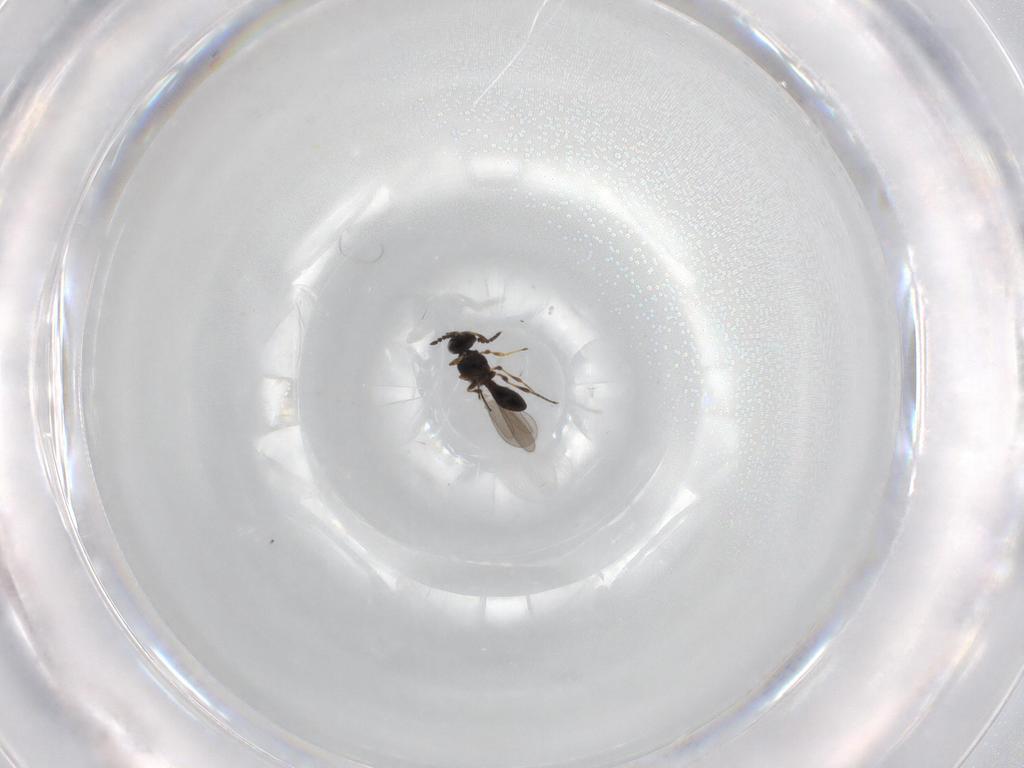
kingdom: Animalia
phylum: Arthropoda
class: Insecta
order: Hymenoptera
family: Platygastridae
